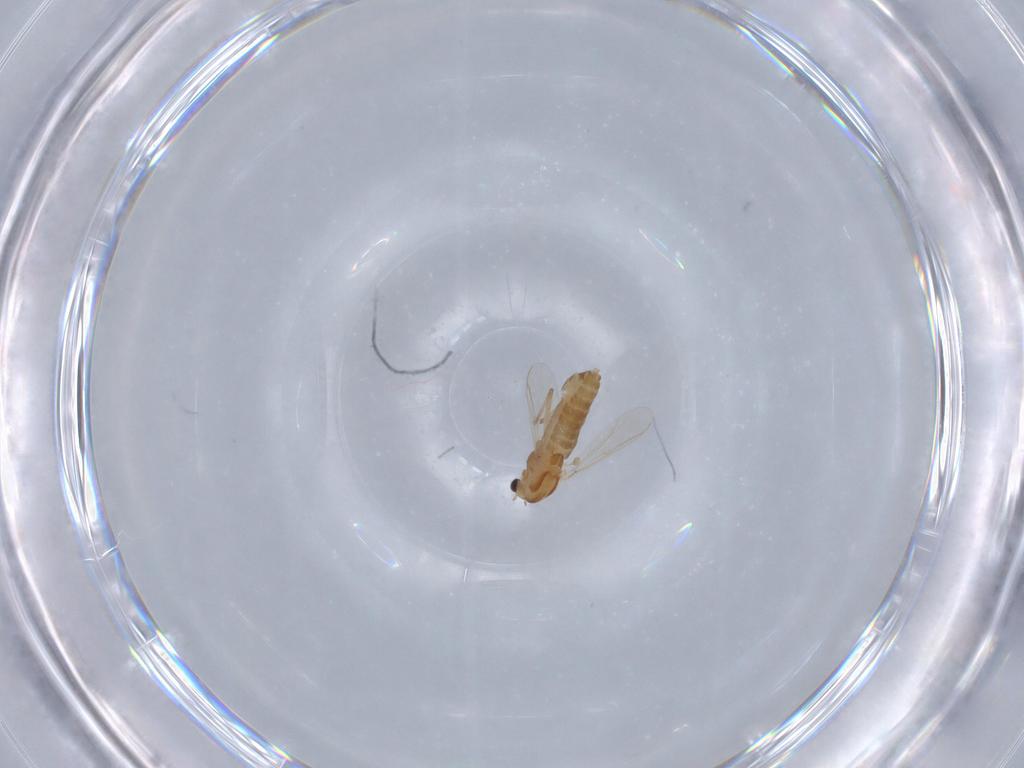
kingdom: Animalia
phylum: Arthropoda
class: Insecta
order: Diptera
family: Chironomidae
